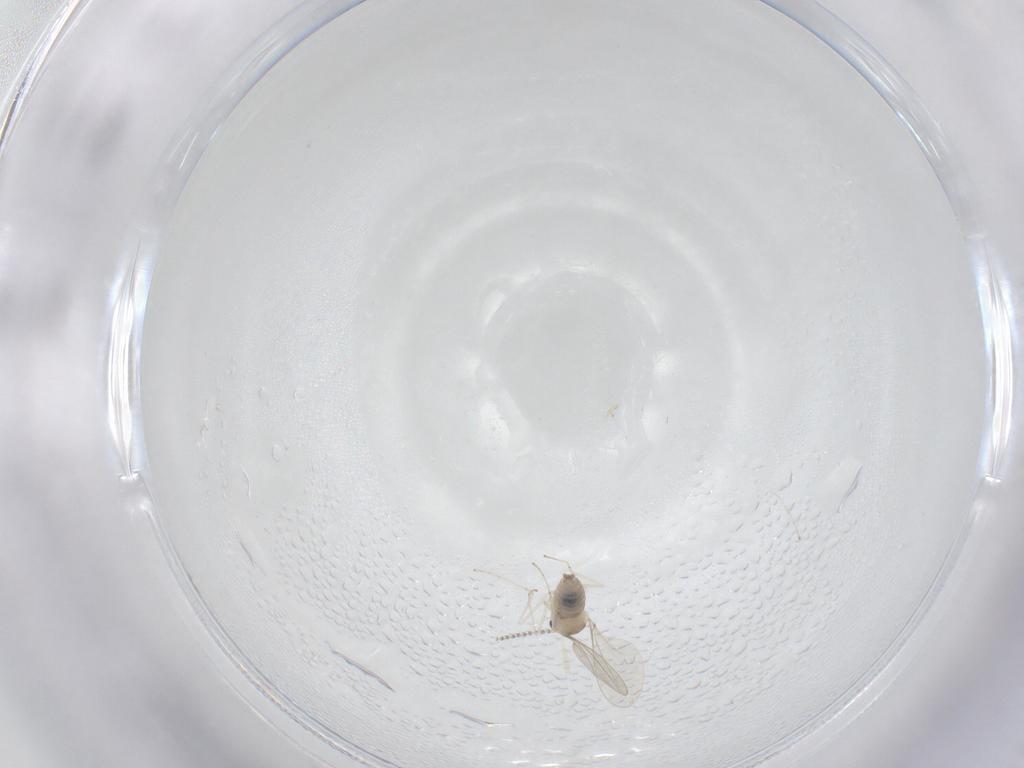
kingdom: Animalia
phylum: Arthropoda
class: Insecta
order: Diptera
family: Cecidomyiidae
